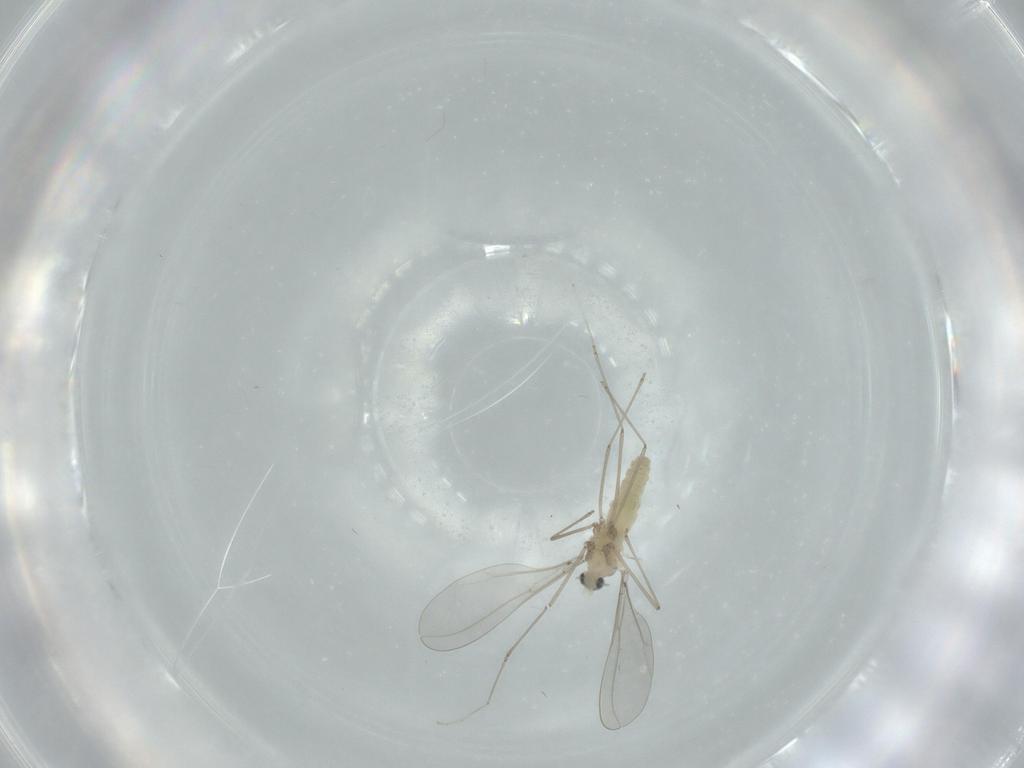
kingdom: Animalia
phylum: Arthropoda
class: Insecta
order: Diptera
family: Cecidomyiidae
